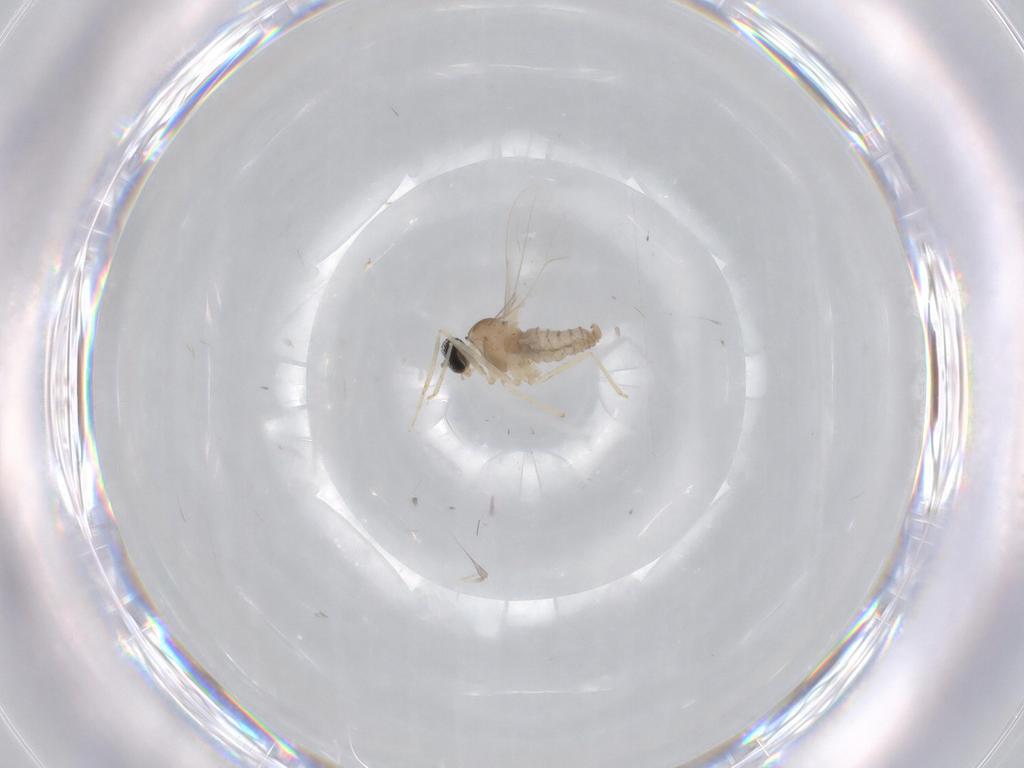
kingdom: Animalia
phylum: Arthropoda
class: Insecta
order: Diptera
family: Cecidomyiidae
